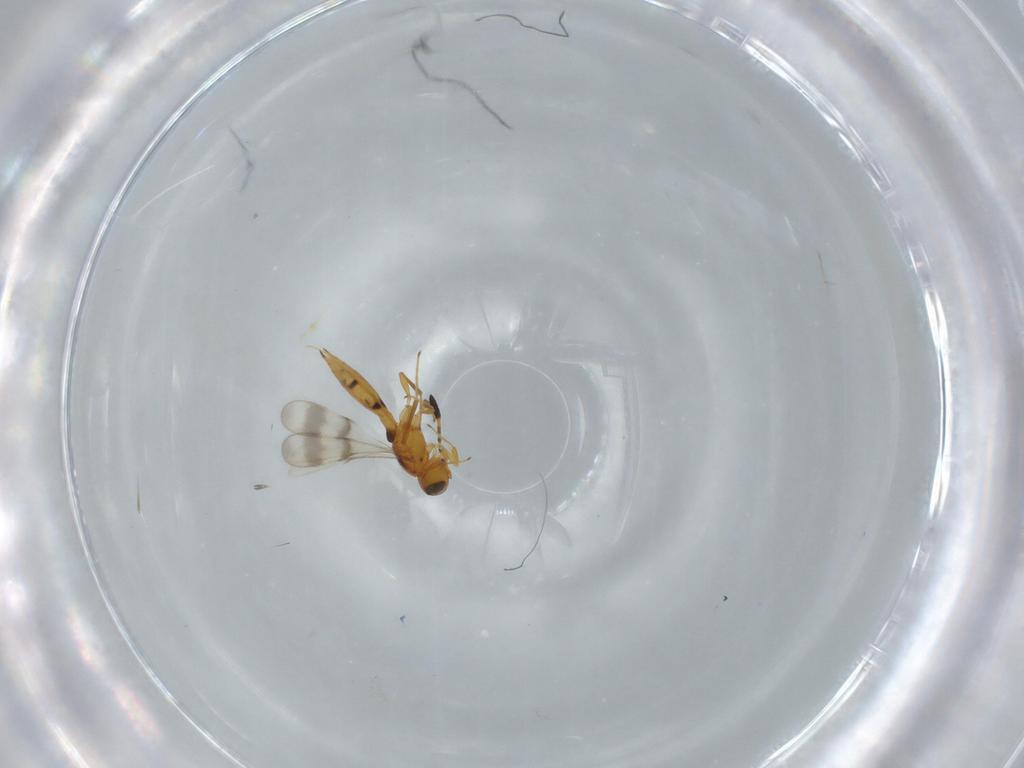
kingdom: Animalia
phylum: Arthropoda
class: Insecta
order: Hymenoptera
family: Scelionidae
